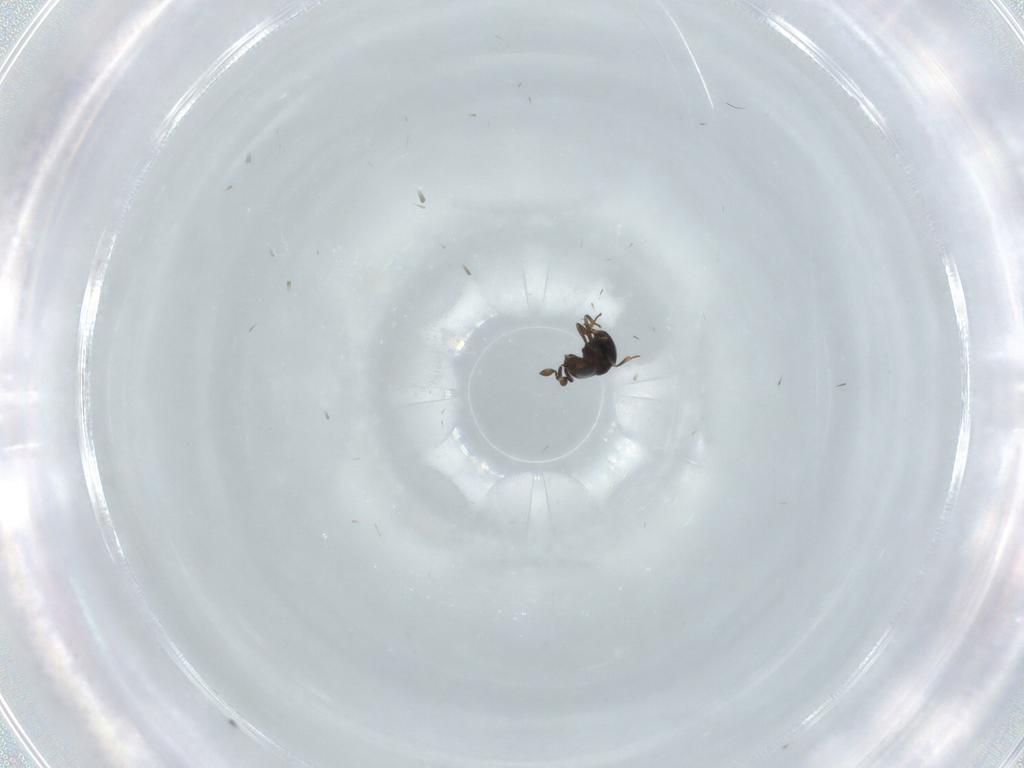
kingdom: Animalia
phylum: Arthropoda
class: Insecta
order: Hymenoptera
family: Scelionidae
